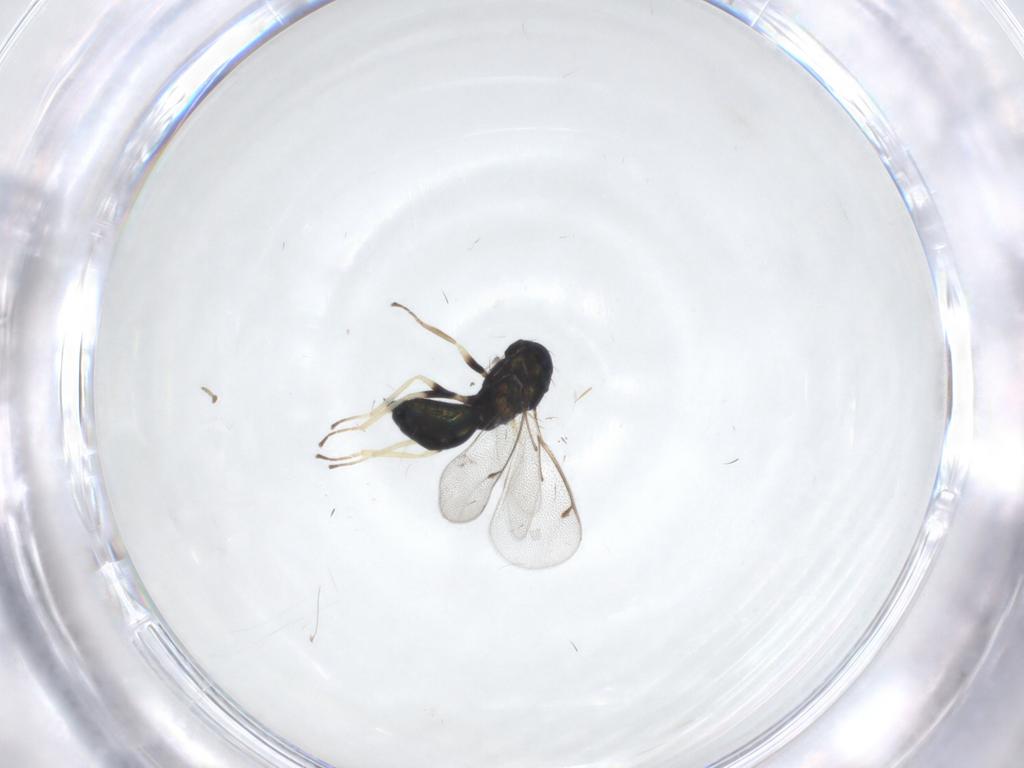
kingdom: Animalia
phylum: Arthropoda
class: Insecta
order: Hymenoptera
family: Eulophidae
